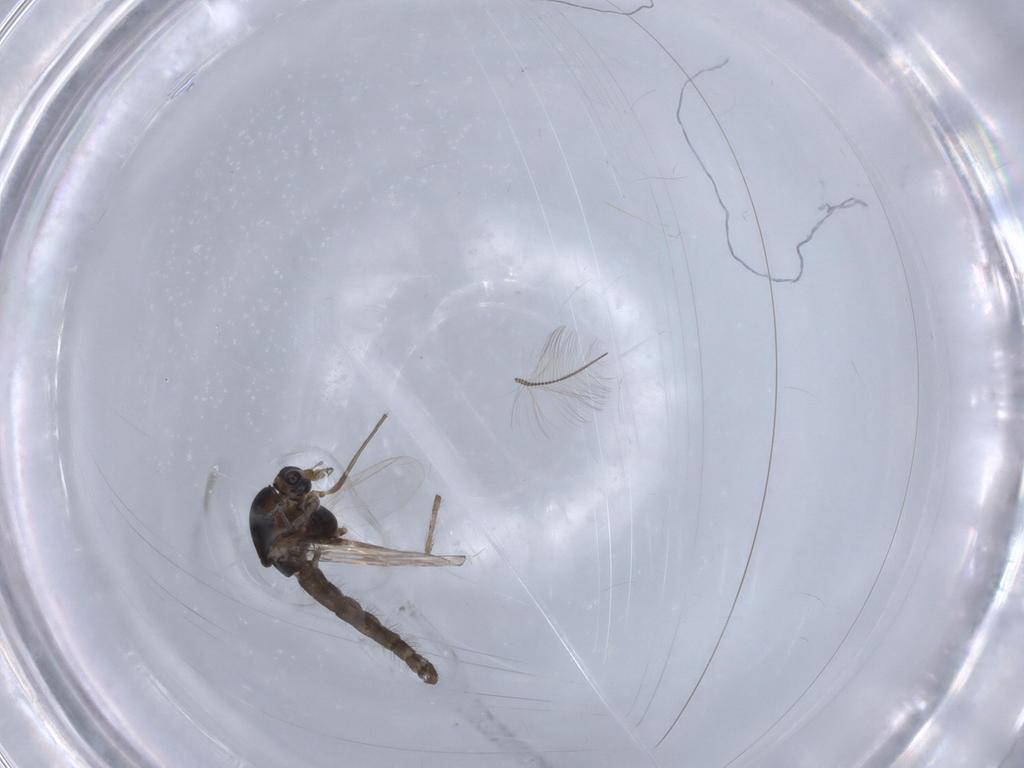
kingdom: Animalia
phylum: Arthropoda
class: Insecta
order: Diptera
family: Chironomidae
